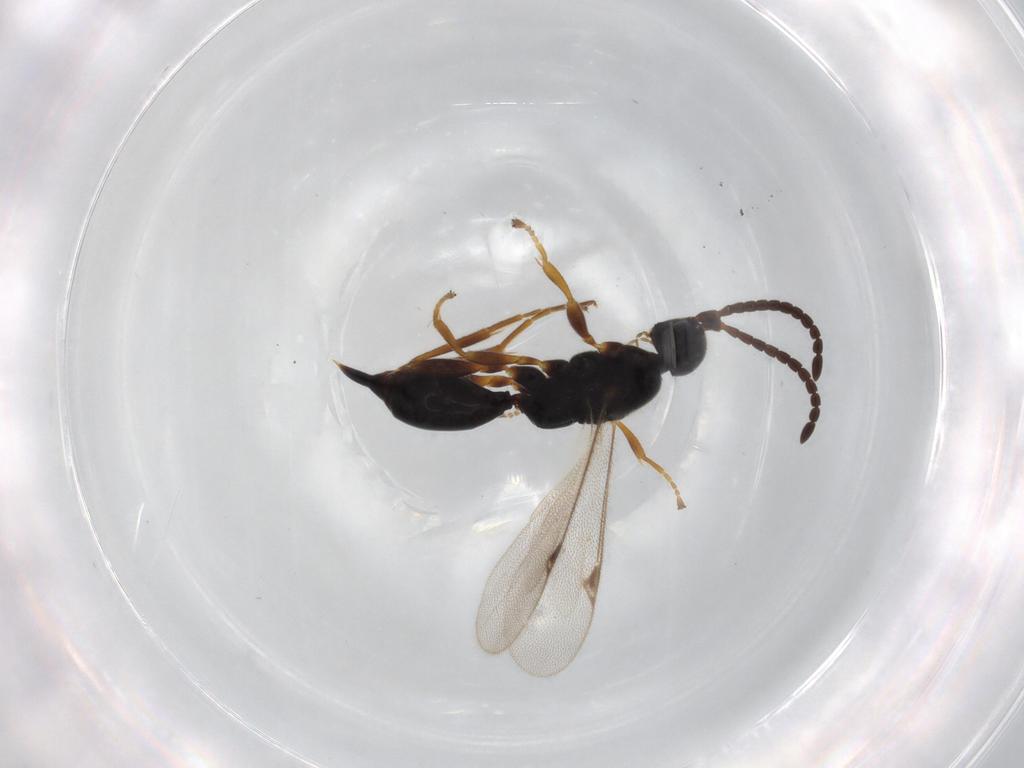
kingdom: Animalia
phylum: Arthropoda
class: Insecta
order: Hymenoptera
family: Proctotrupidae
